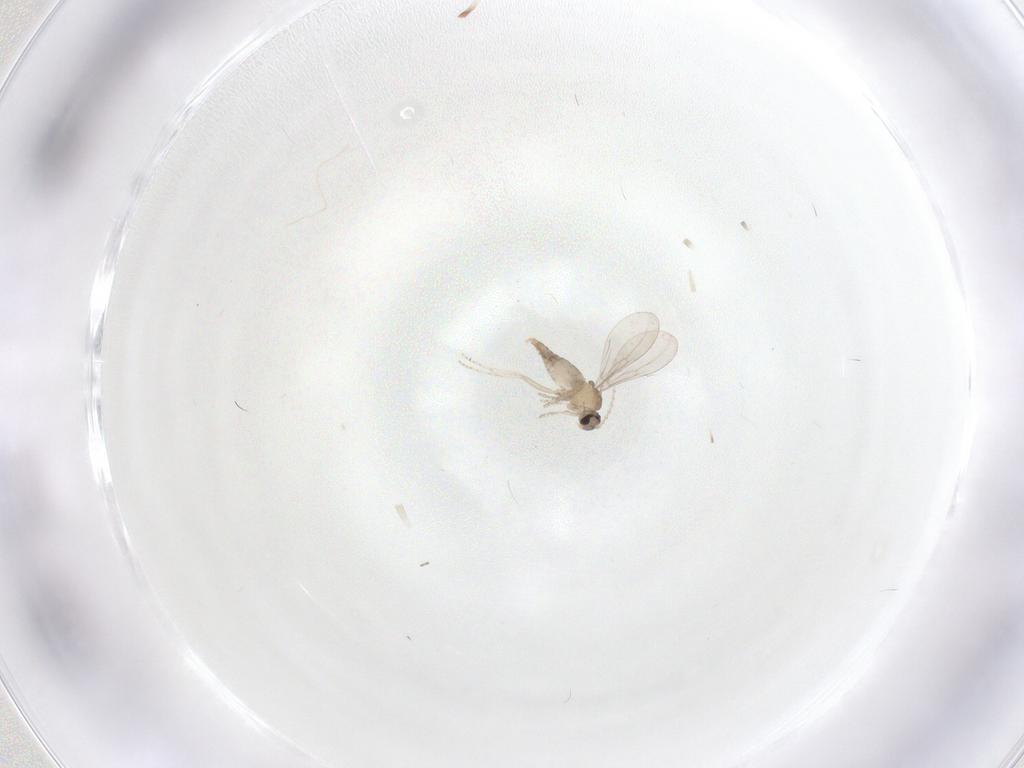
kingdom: Animalia
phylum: Arthropoda
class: Insecta
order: Diptera
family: Cecidomyiidae
